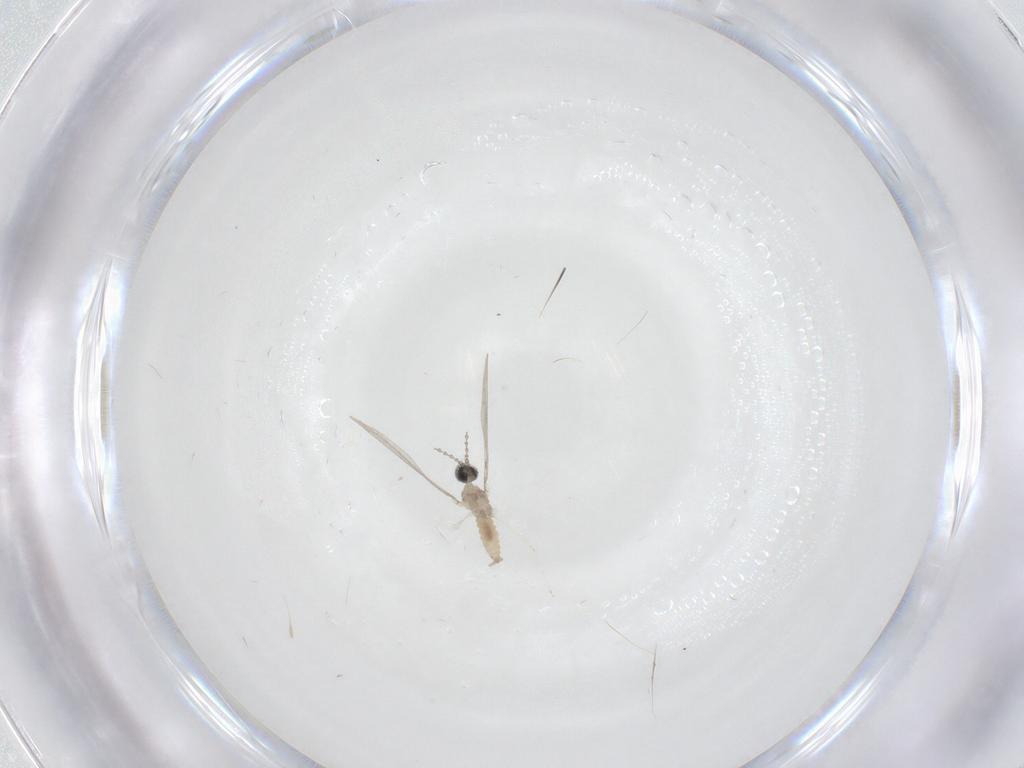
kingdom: Animalia
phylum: Arthropoda
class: Insecta
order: Diptera
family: Cecidomyiidae
